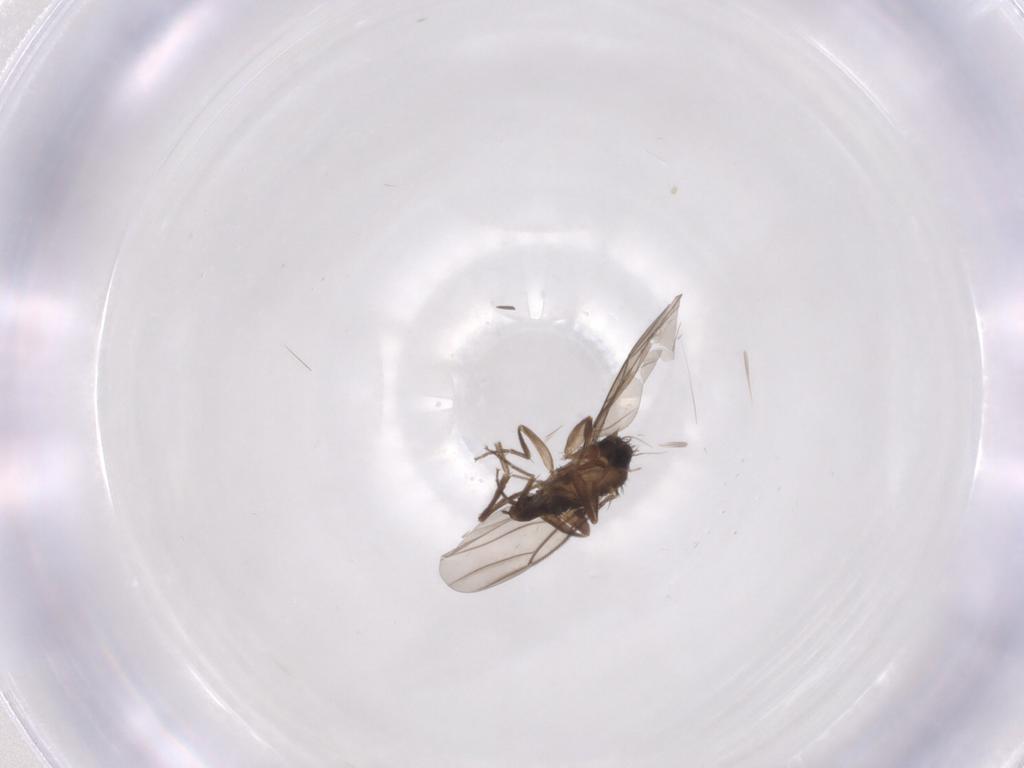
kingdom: Animalia
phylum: Arthropoda
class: Insecta
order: Diptera
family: Phoridae
